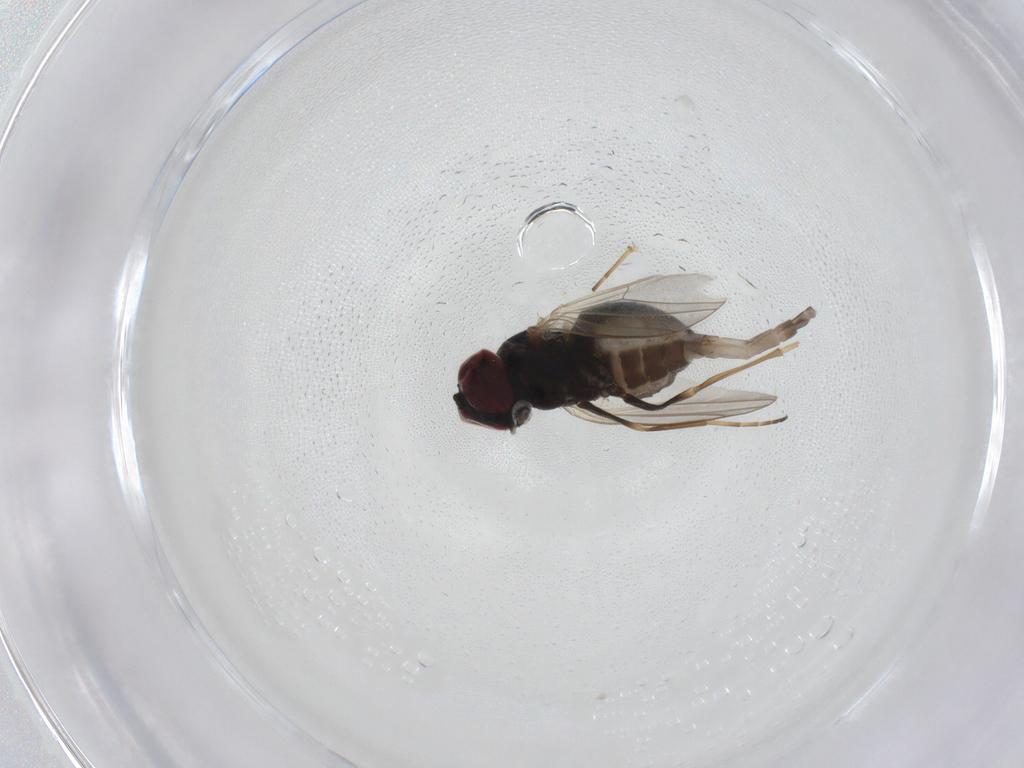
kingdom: Animalia
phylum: Arthropoda
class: Insecta
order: Diptera
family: Dolichopodidae
